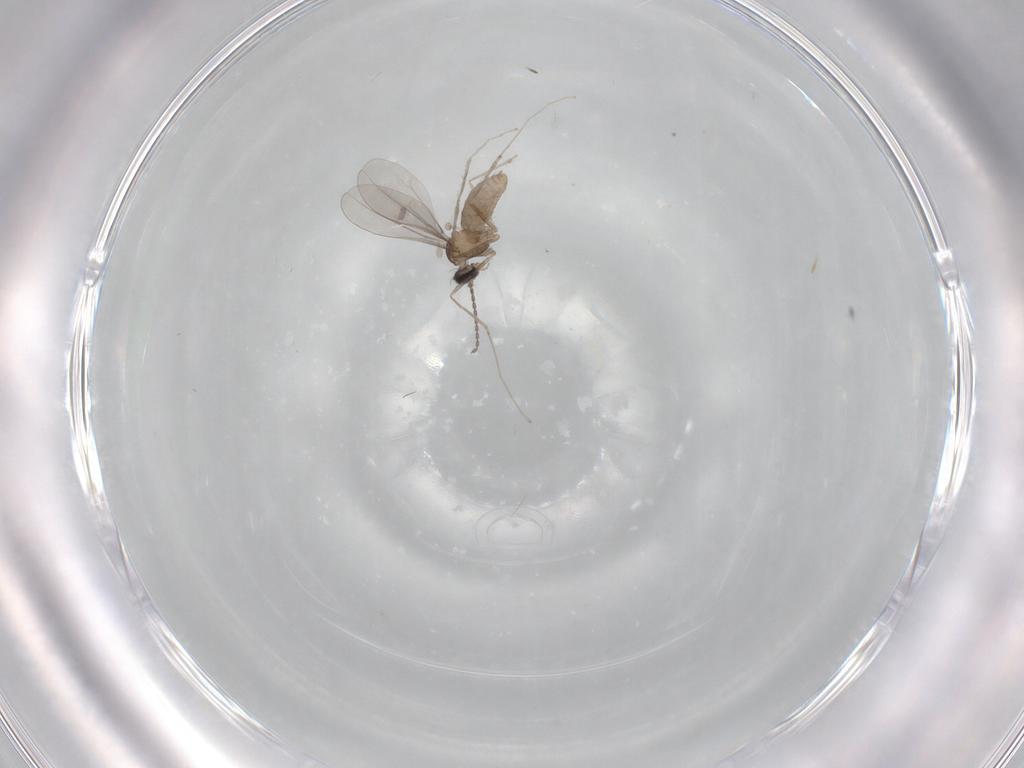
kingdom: Animalia
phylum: Arthropoda
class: Insecta
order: Diptera
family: Cecidomyiidae
